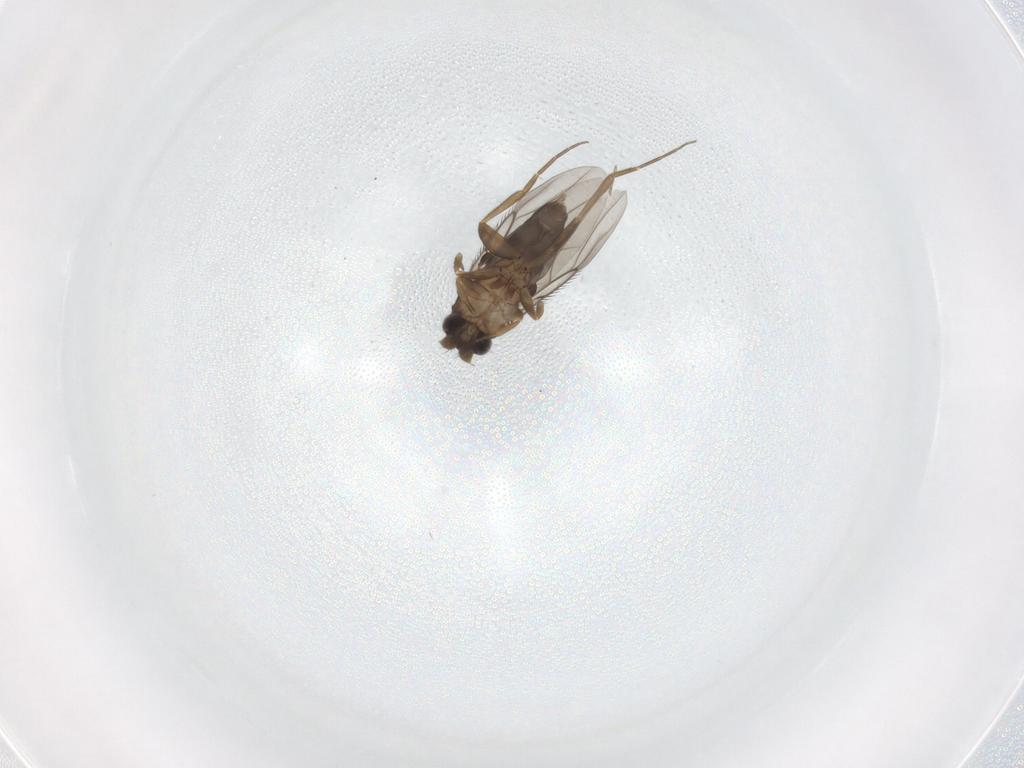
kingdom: Animalia
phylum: Arthropoda
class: Insecta
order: Diptera
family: Phoridae
